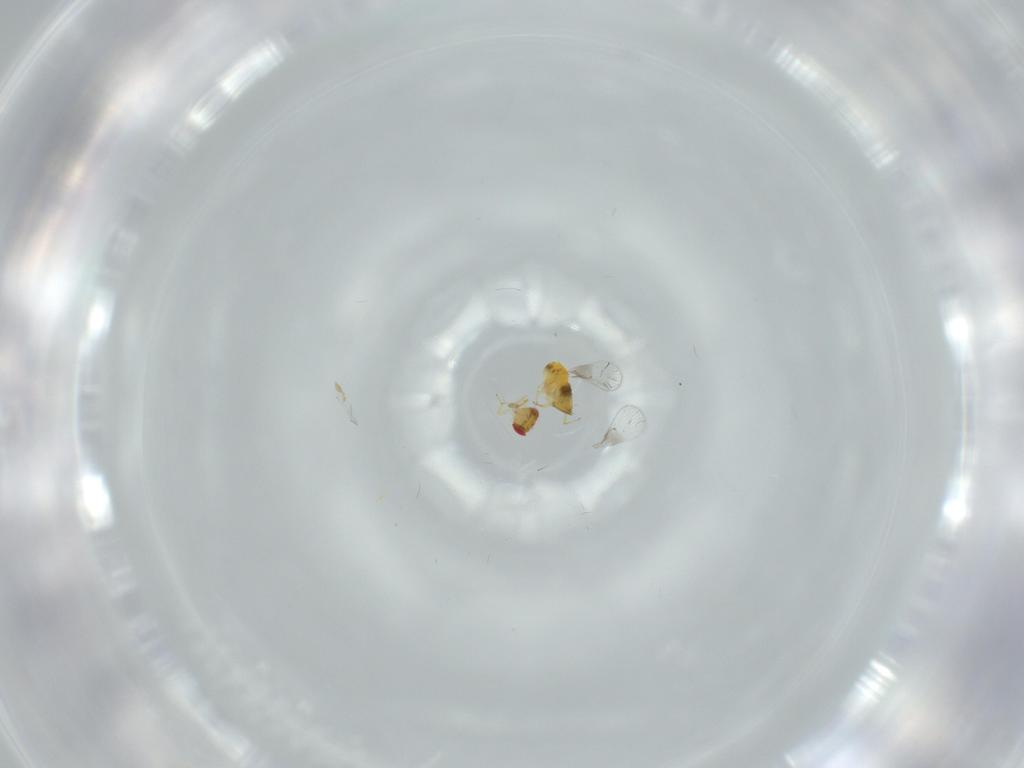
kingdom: Animalia
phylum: Arthropoda
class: Insecta
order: Hymenoptera
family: Trichogrammatidae
